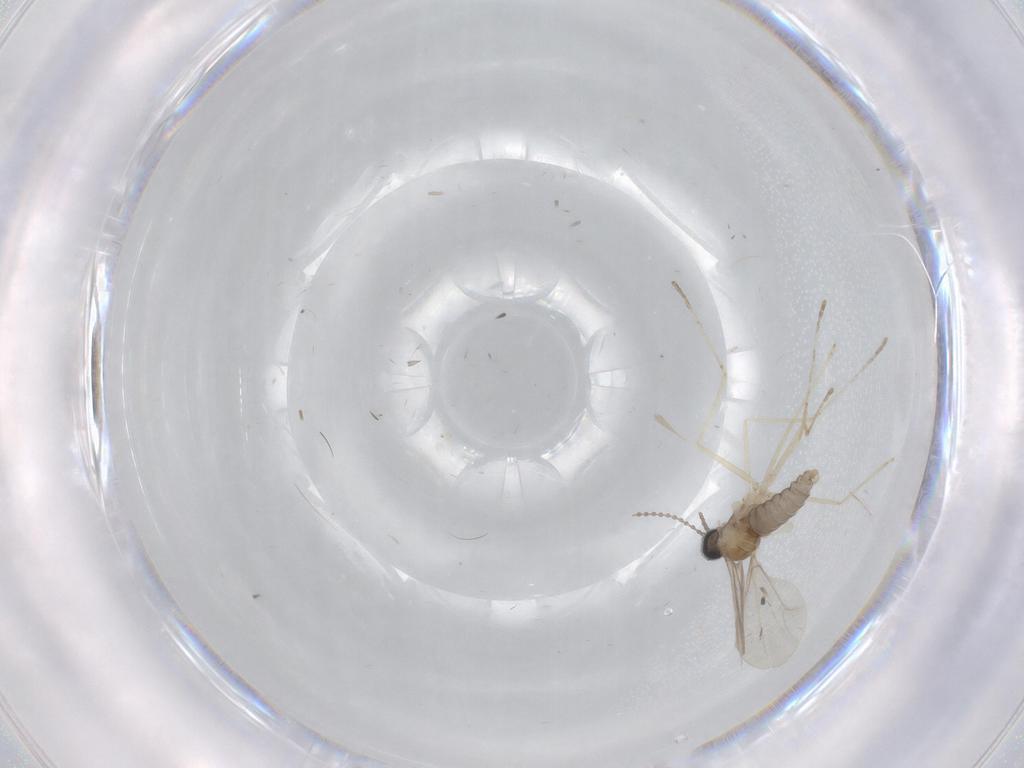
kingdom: Animalia
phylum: Arthropoda
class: Insecta
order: Diptera
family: Cecidomyiidae
